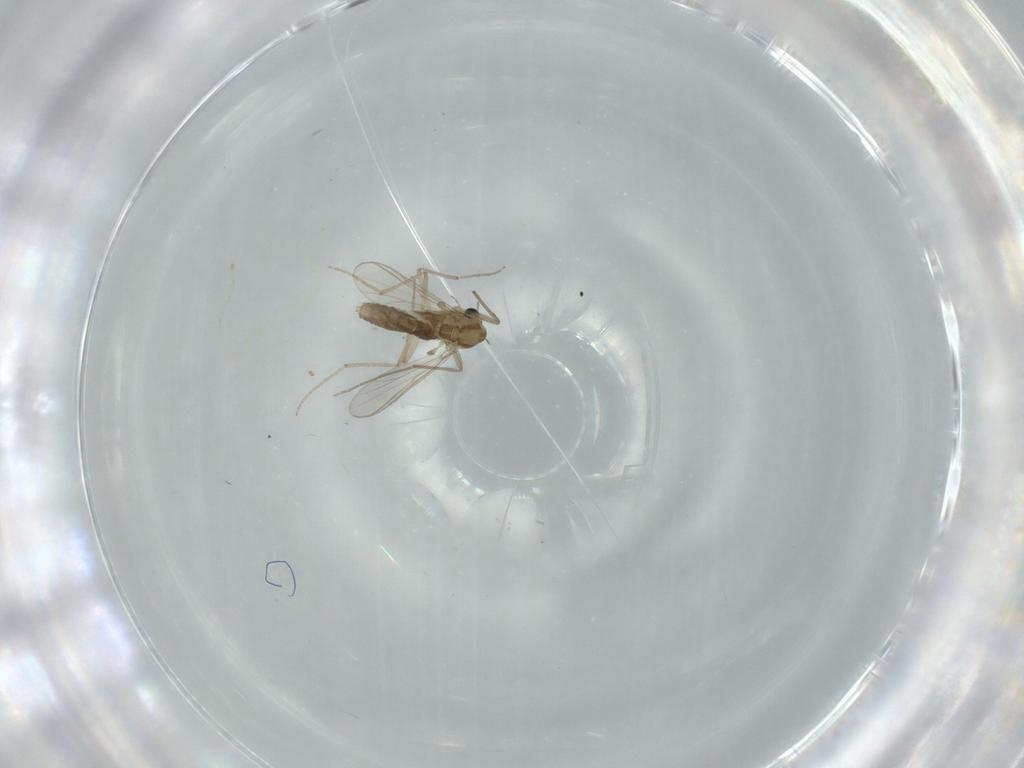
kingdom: Animalia
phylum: Arthropoda
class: Insecta
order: Diptera
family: Chironomidae
